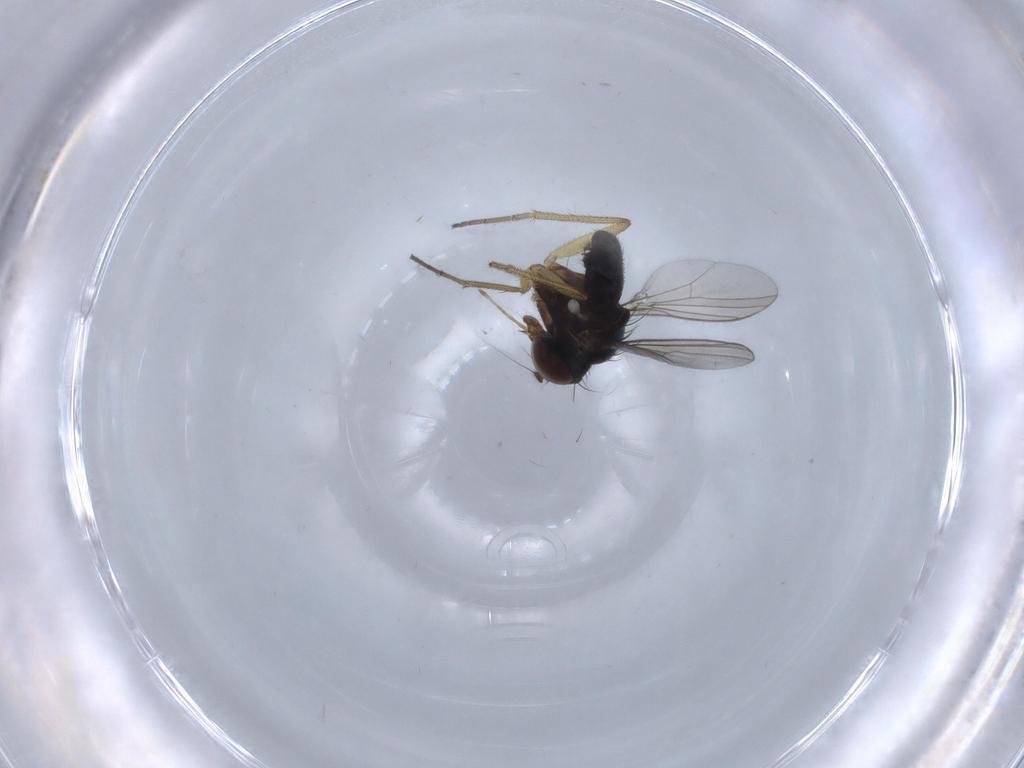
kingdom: Animalia
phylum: Arthropoda
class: Insecta
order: Diptera
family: Dolichopodidae
